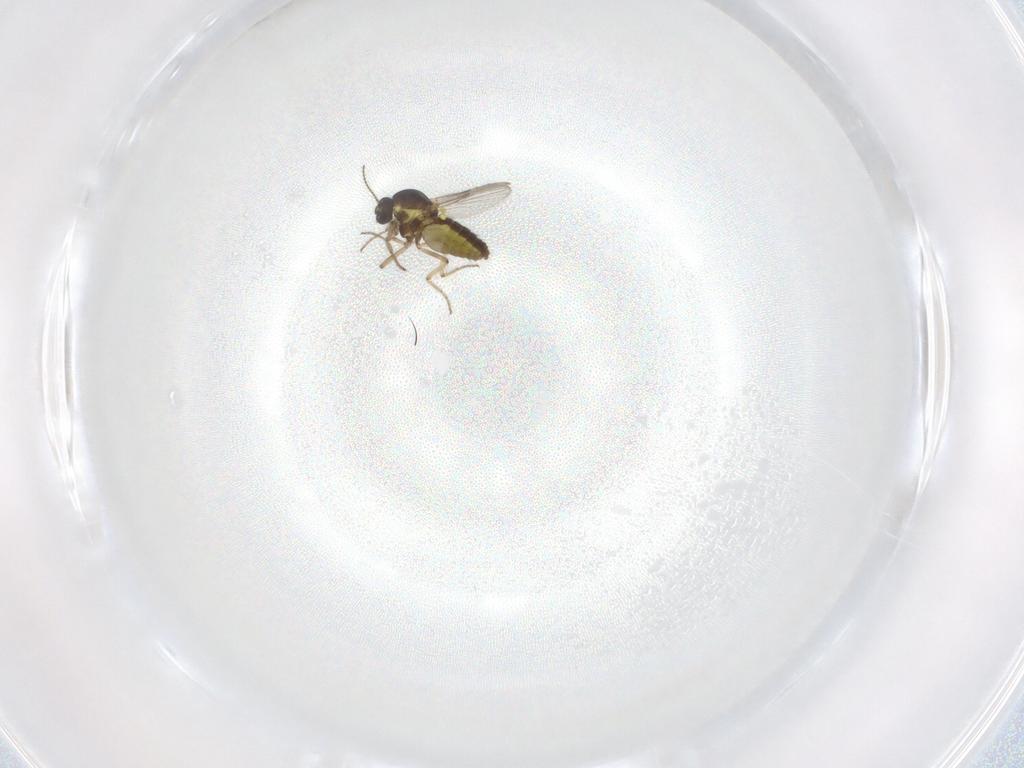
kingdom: Animalia
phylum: Arthropoda
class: Insecta
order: Diptera
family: Ceratopogonidae
